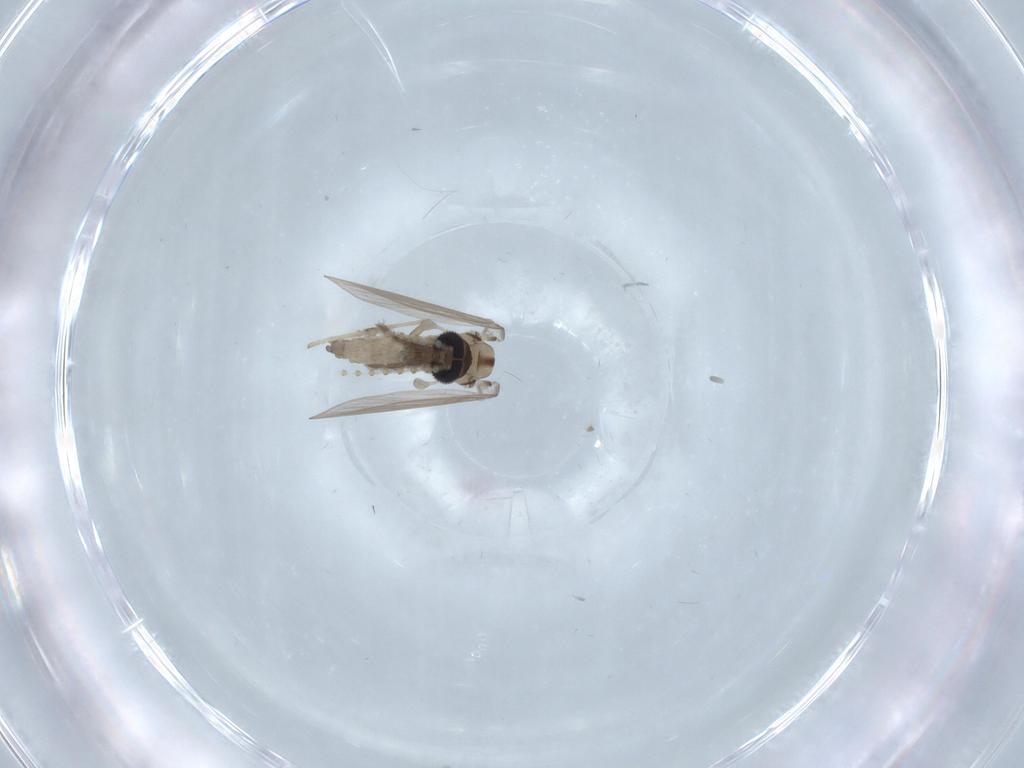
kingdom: Animalia
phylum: Arthropoda
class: Insecta
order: Diptera
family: Psychodidae
